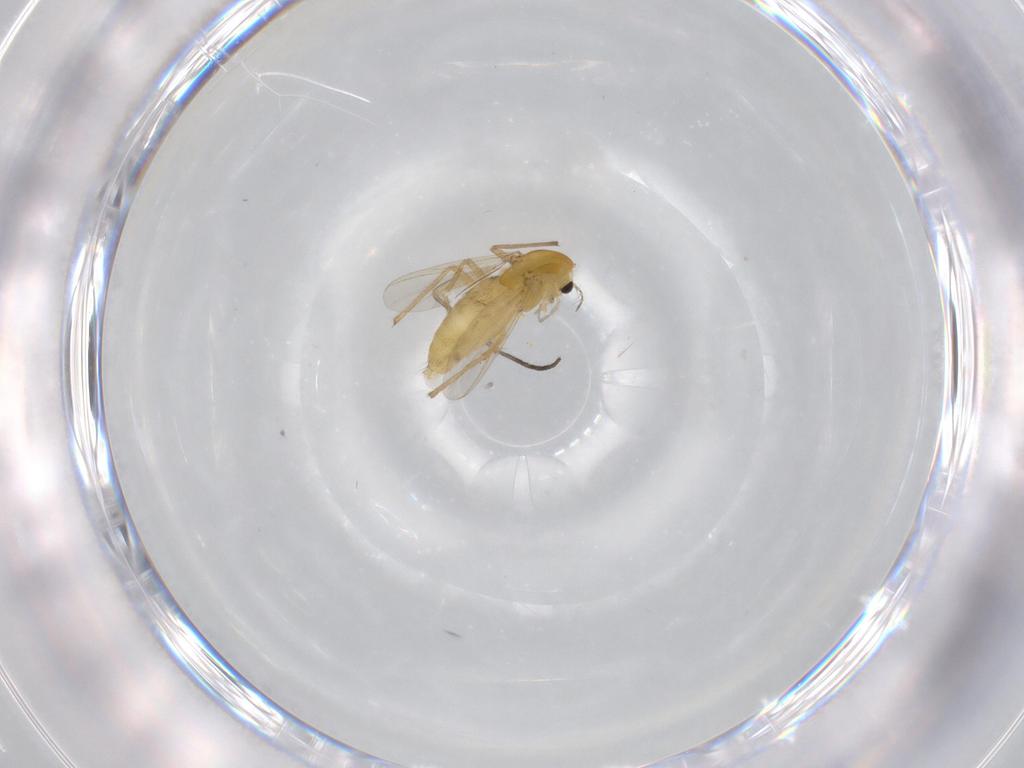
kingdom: Animalia
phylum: Arthropoda
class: Insecta
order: Diptera
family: Chironomidae
